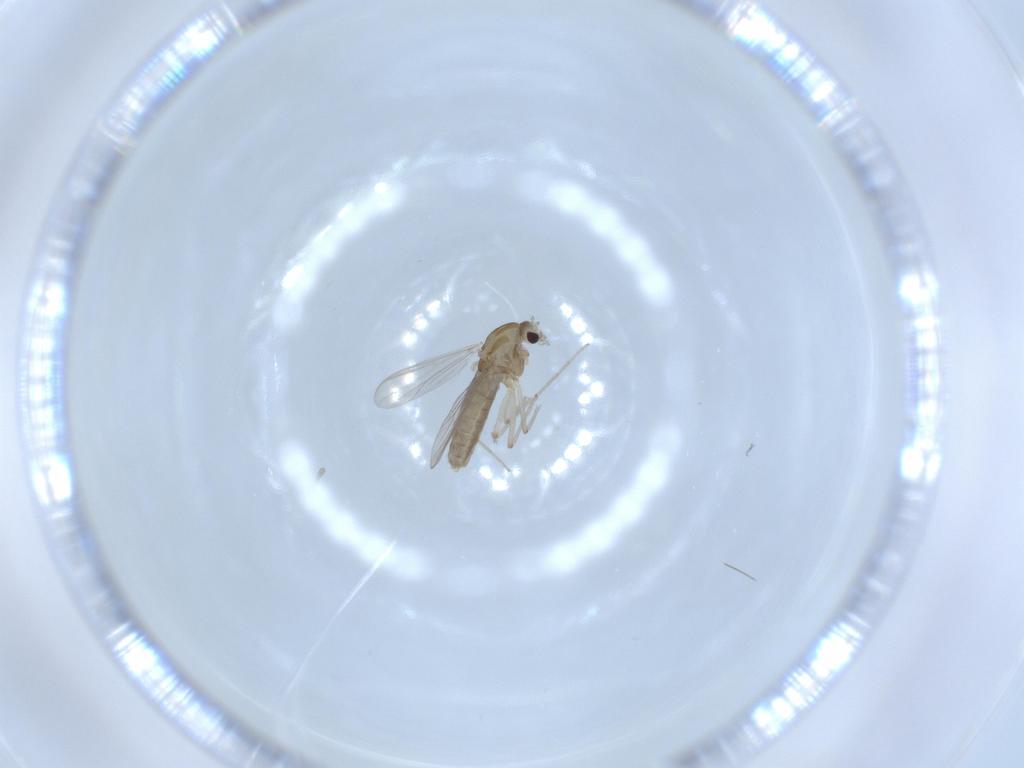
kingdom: Animalia
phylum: Arthropoda
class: Insecta
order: Diptera
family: Chironomidae
